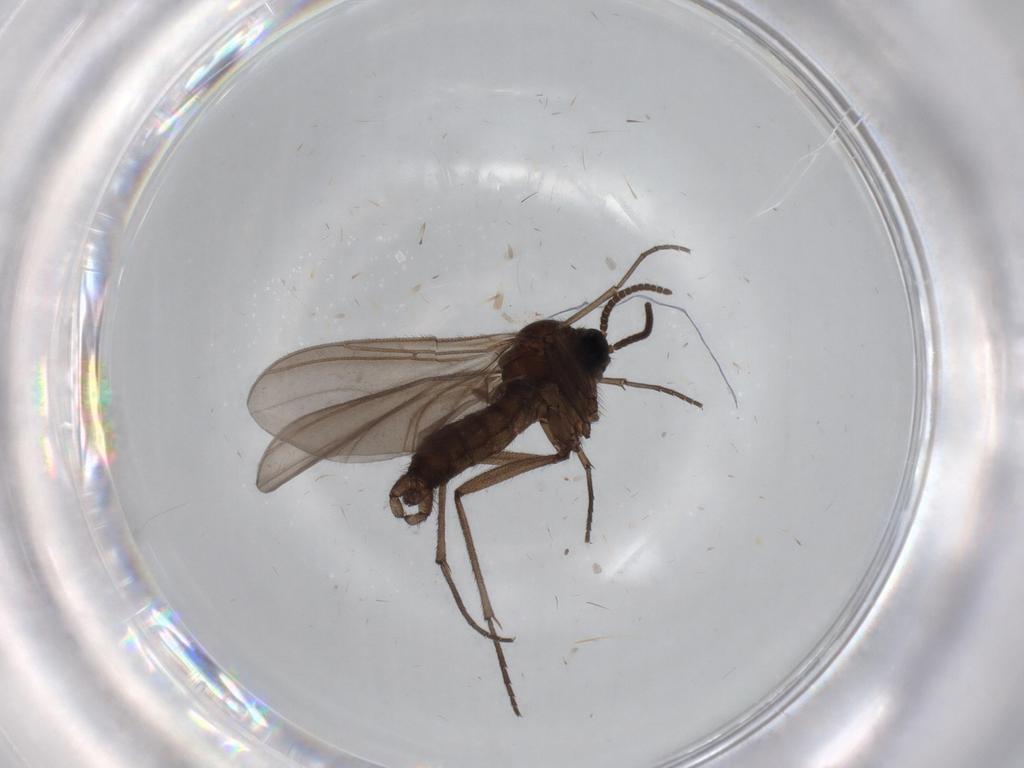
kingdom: Animalia
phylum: Arthropoda
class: Insecta
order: Diptera
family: Sciaridae
